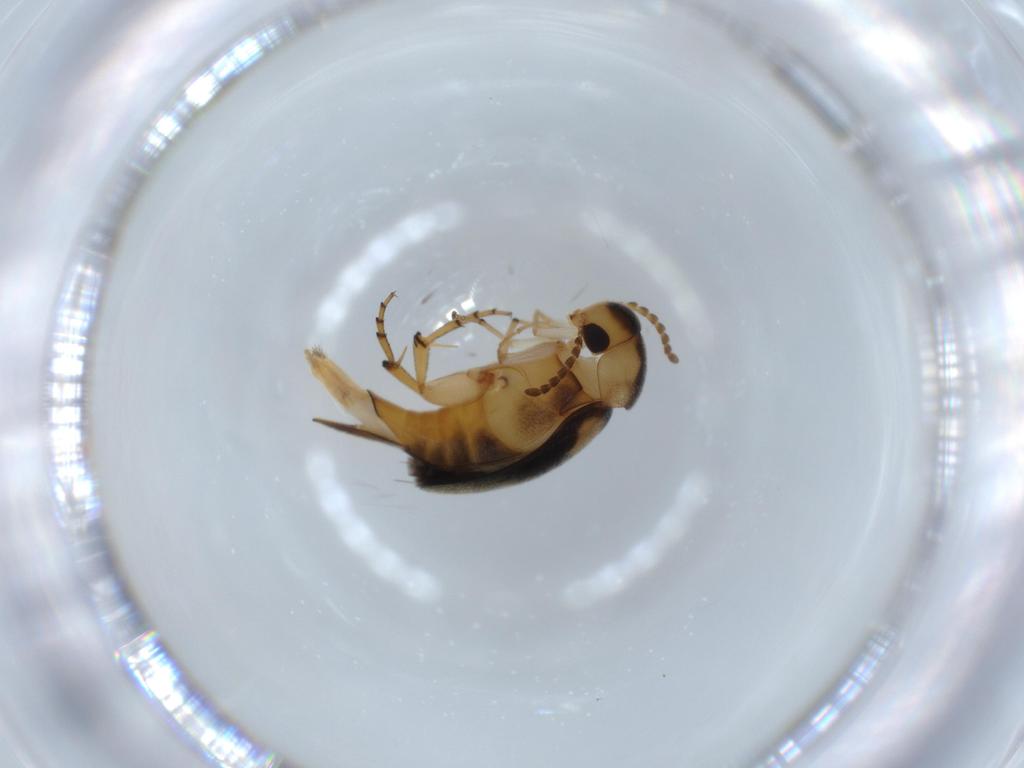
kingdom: Animalia
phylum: Arthropoda
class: Insecta
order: Coleoptera
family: Mordellidae
